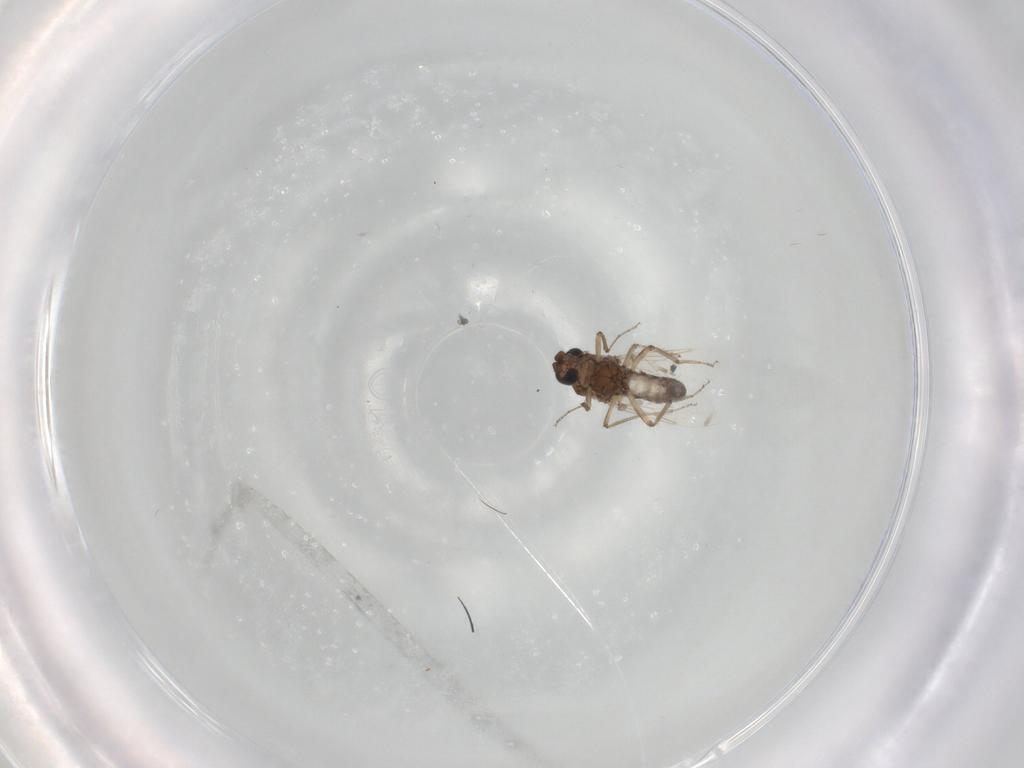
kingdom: Animalia
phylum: Arthropoda
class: Insecta
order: Diptera
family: Ceratopogonidae
